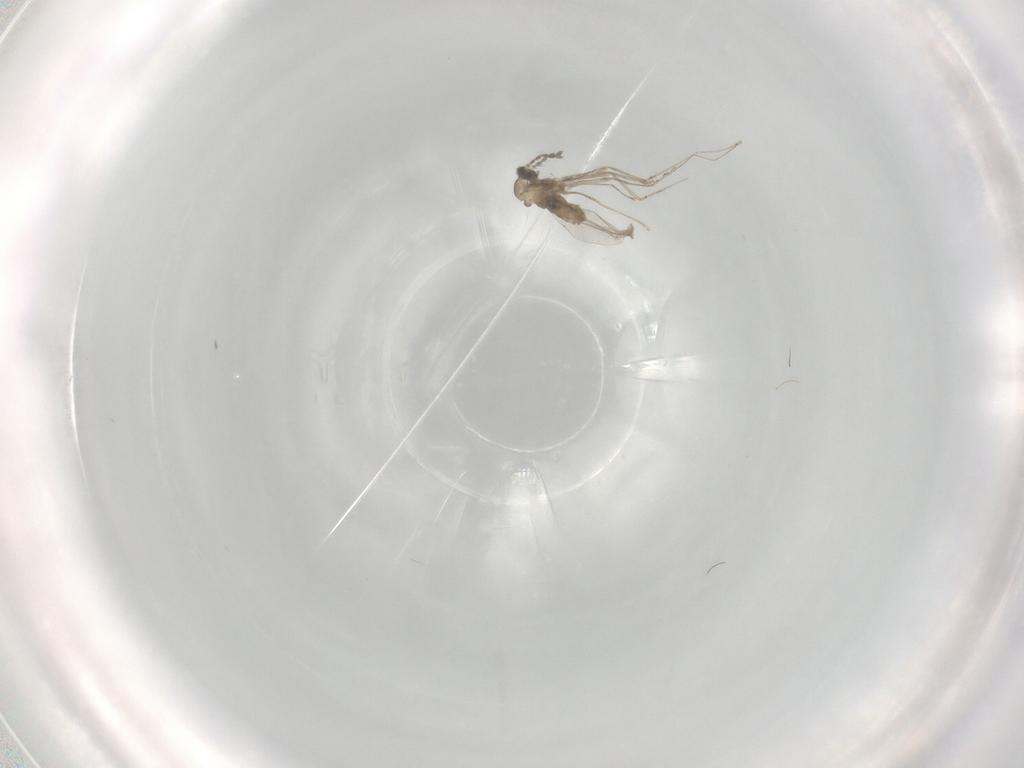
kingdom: Animalia
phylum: Arthropoda
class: Insecta
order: Diptera
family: Cecidomyiidae
